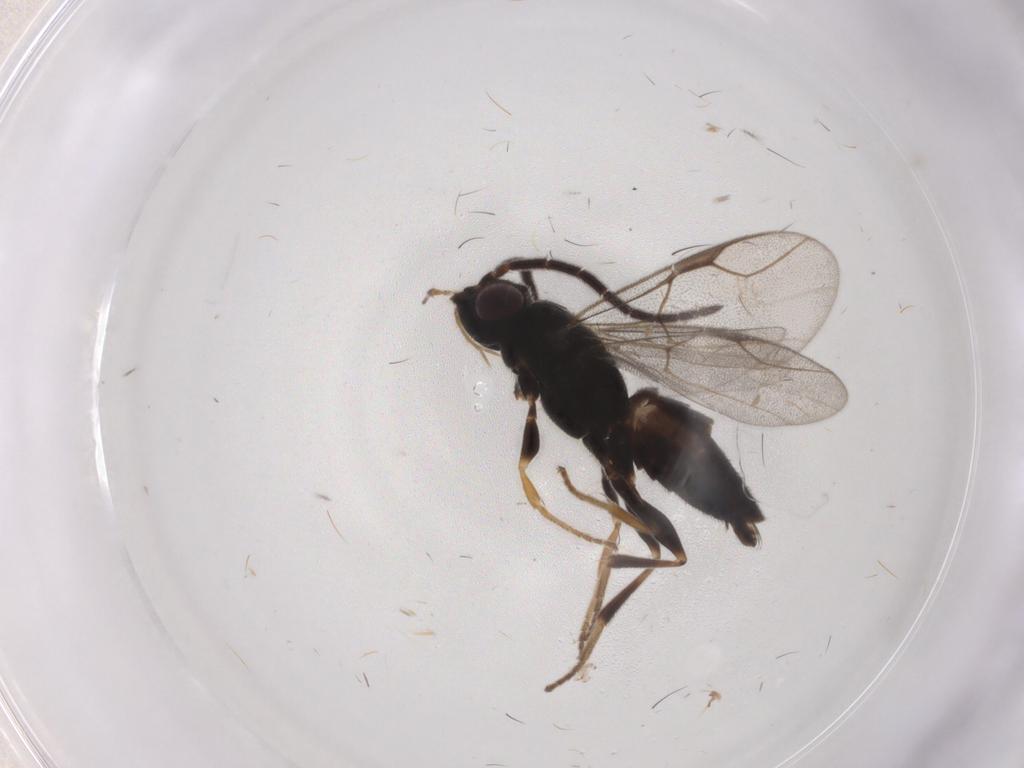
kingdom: Animalia
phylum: Arthropoda
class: Insecta
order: Hymenoptera
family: Dryinidae
